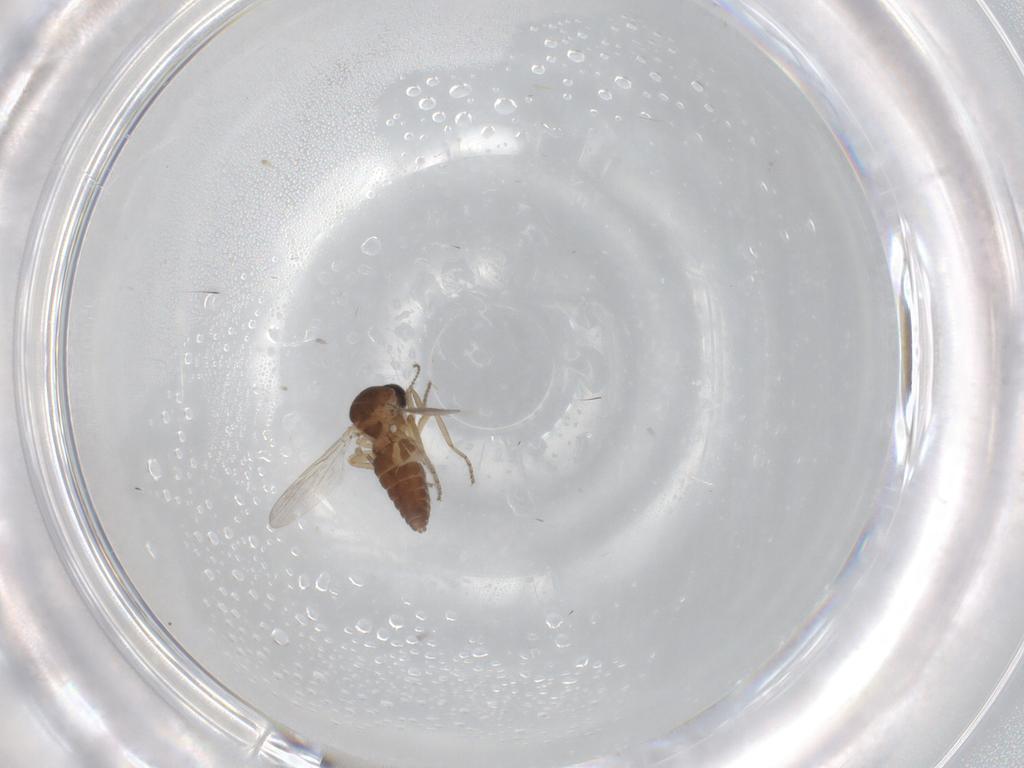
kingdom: Animalia
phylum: Arthropoda
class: Insecta
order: Diptera
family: Ceratopogonidae
